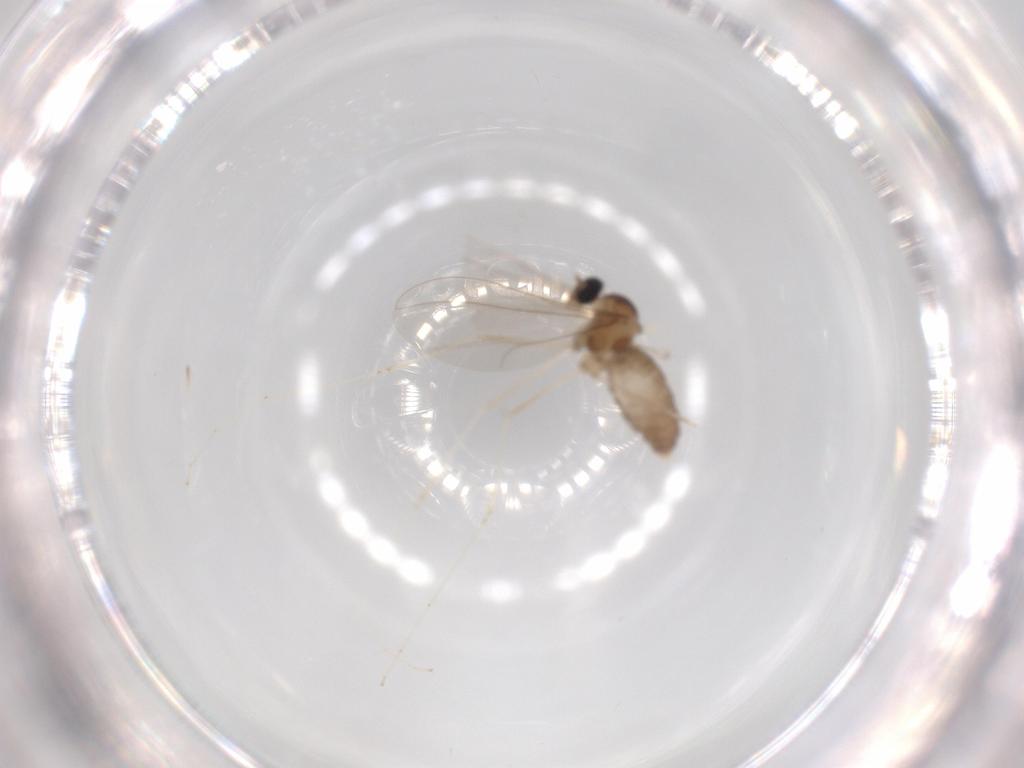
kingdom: Animalia
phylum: Arthropoda
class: Insecta
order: Diptera
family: Cecidomyiidae
